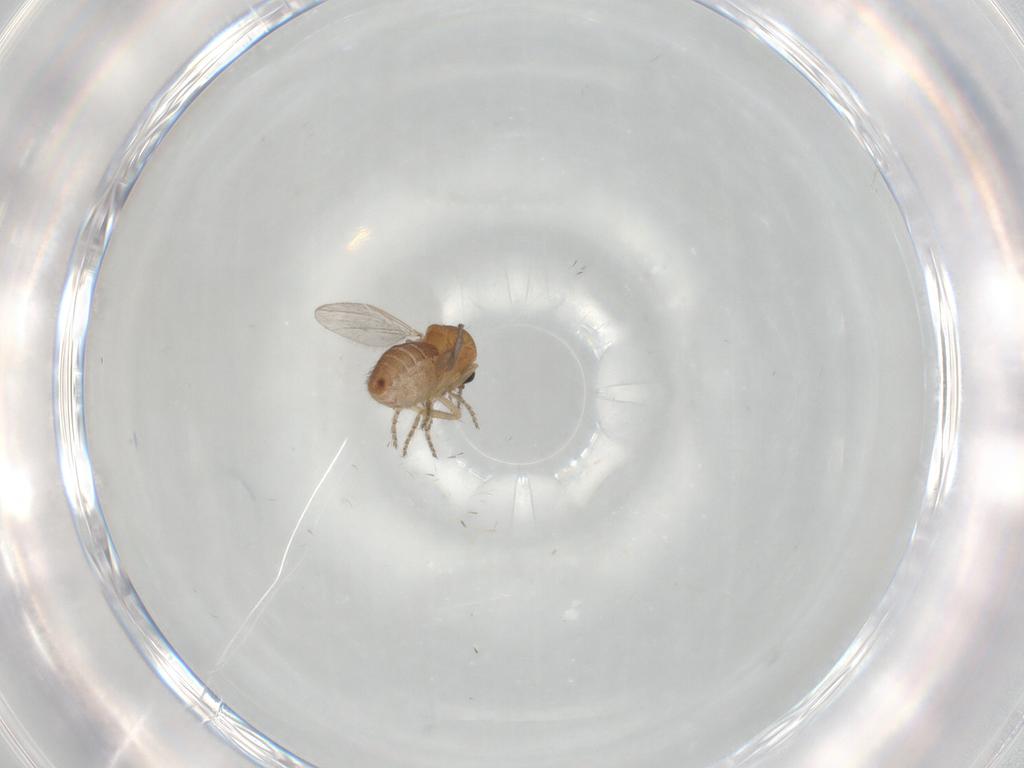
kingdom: Animalia
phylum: Arthropoda
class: Insecta
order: Diptera
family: Ceratopogonidae
